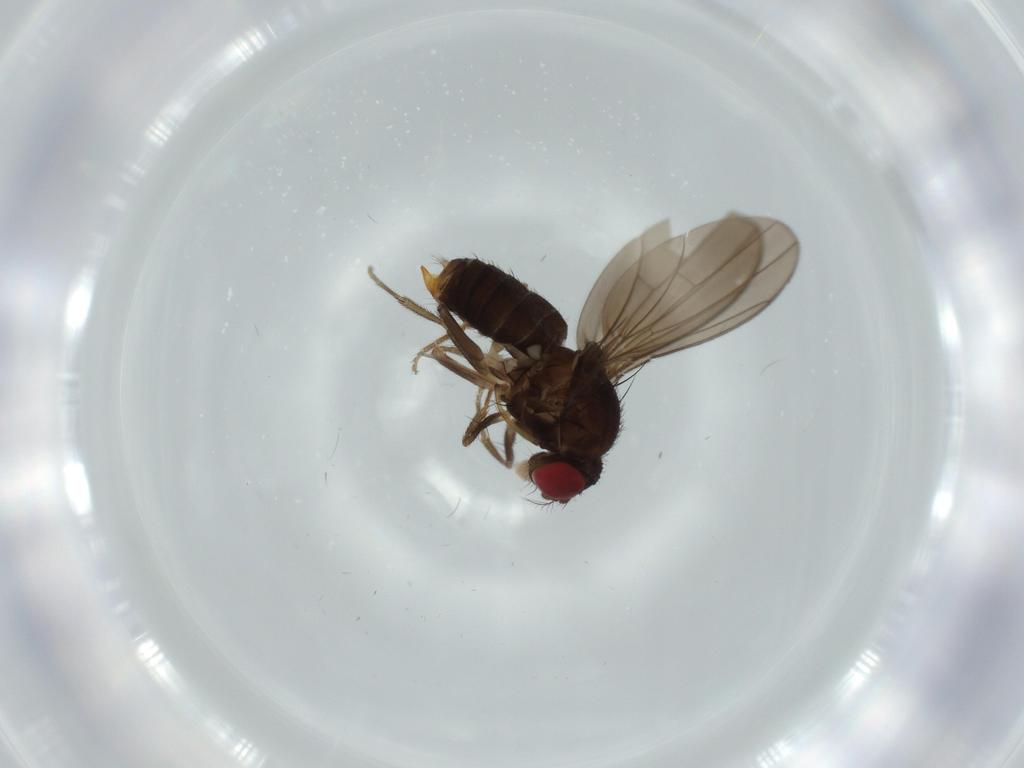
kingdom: Animalia
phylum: Arthropoda
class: Insecta
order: Diptera
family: Drosophilidae
